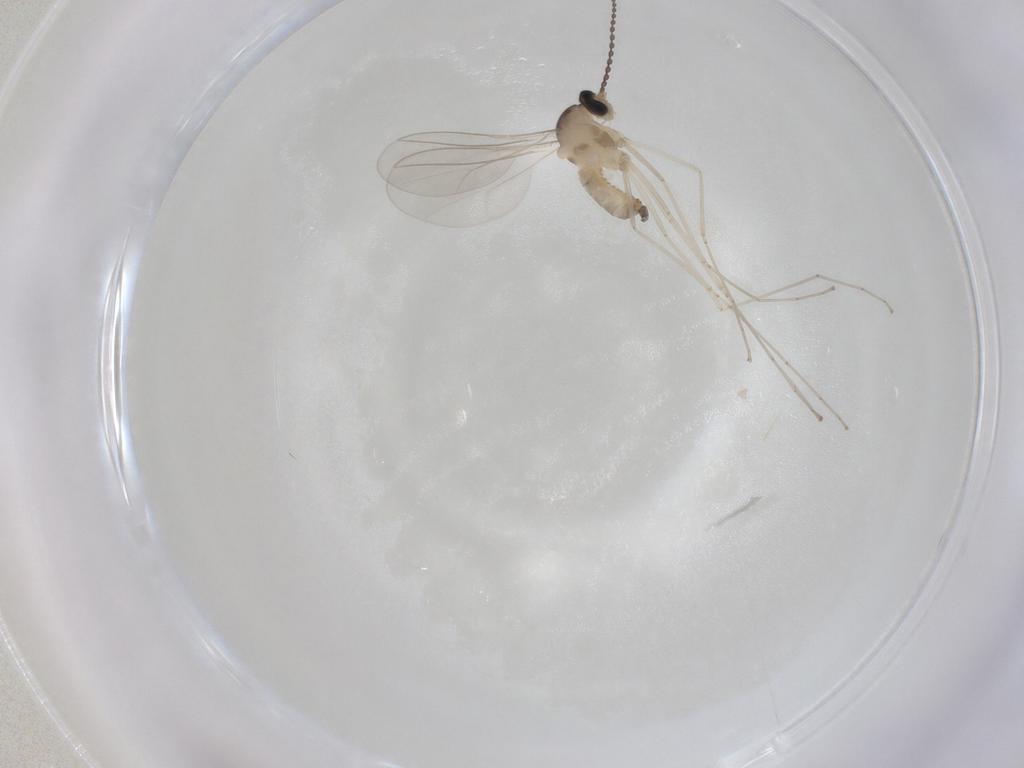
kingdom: Animalia
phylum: Arthropoda
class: Insecta
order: Diptera
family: Ceratopogonidae
